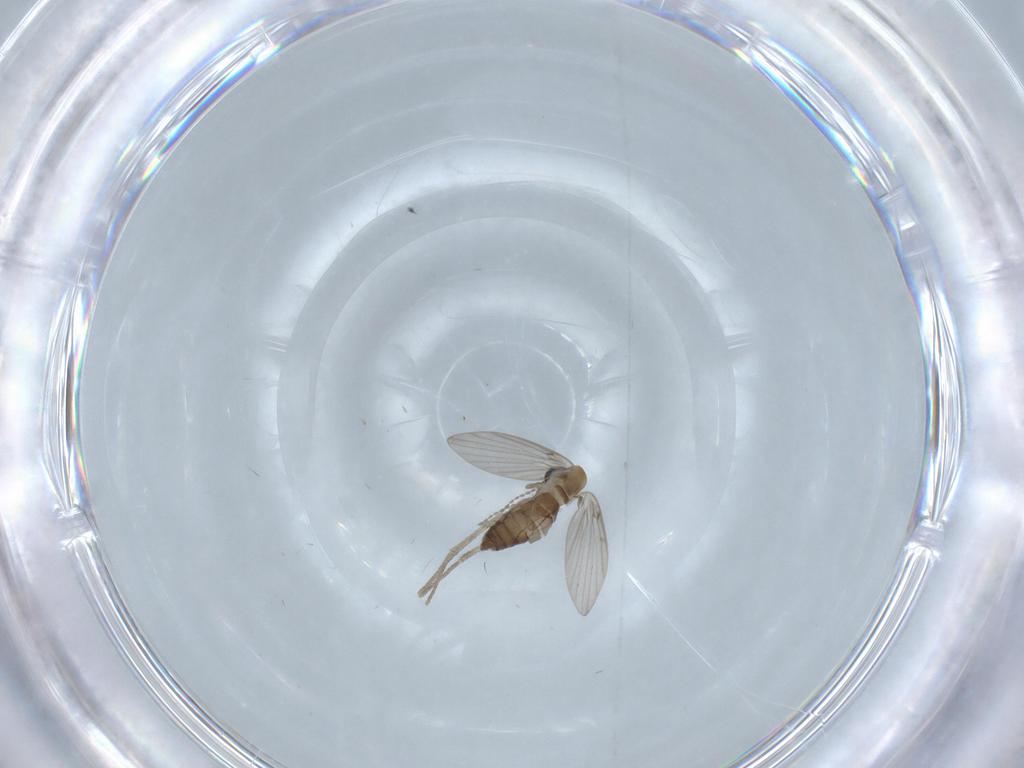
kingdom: Animalia
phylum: Arthropoda
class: Insecta
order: Diptera
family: Psychodidae
